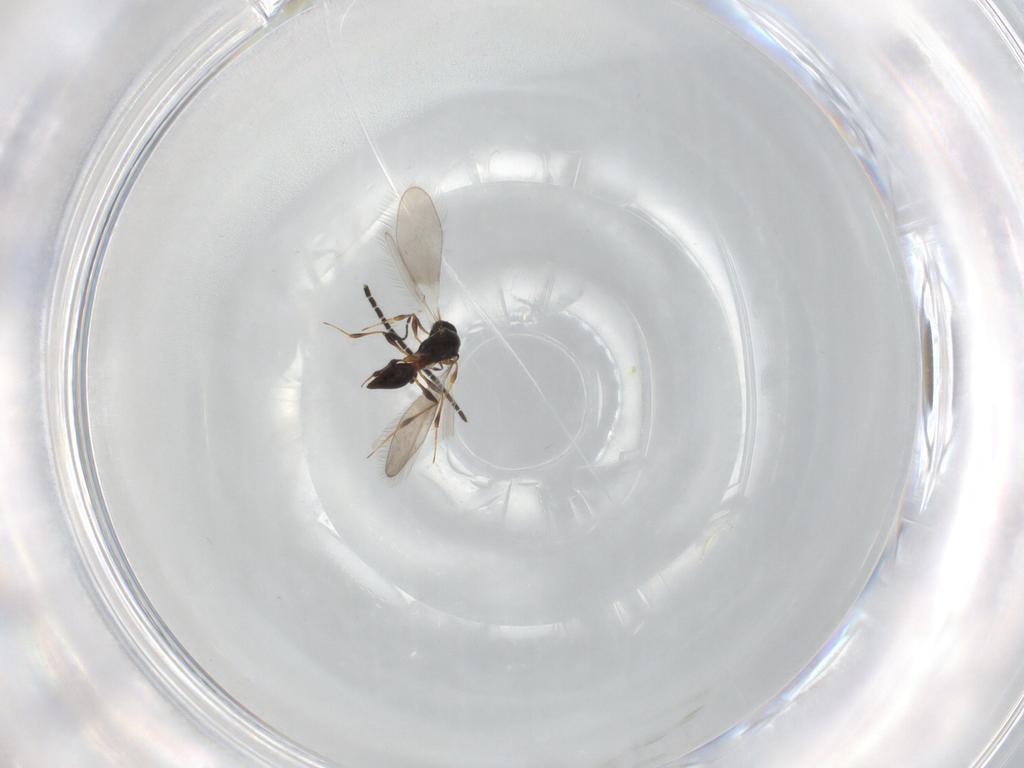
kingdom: Animalia
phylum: Arthropoda
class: Insecta
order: Hymenoptera
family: Platygastridae
